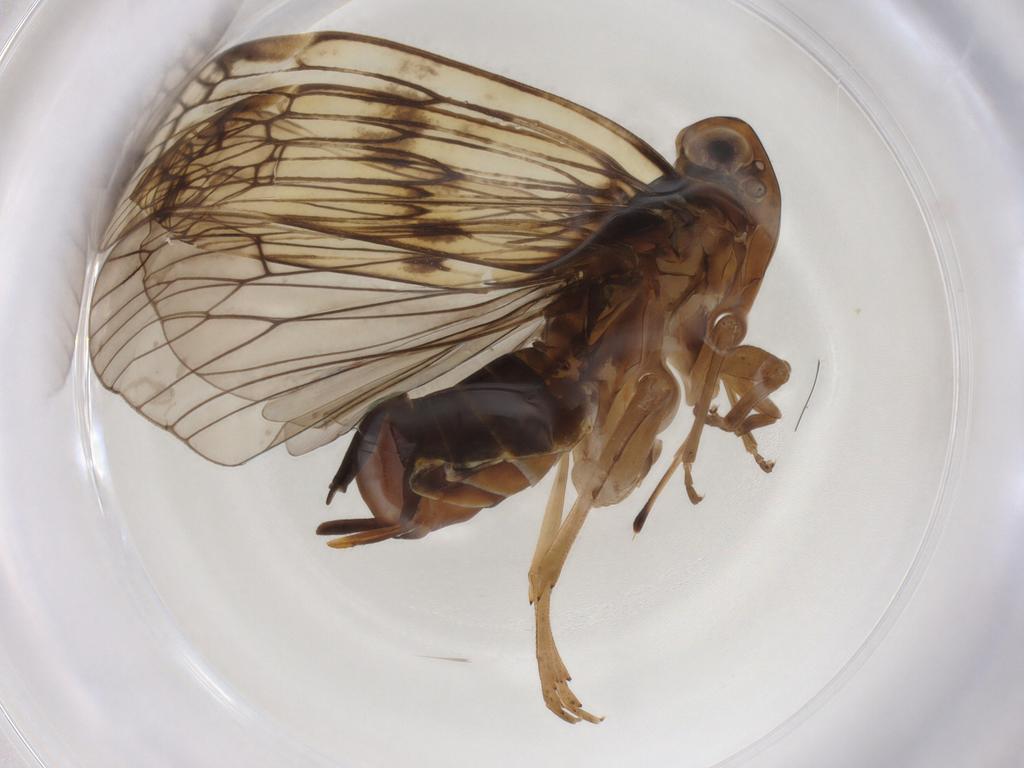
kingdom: Animalia
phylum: Arthropoda
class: Insecta
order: Hemiptera
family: Cixiidae
